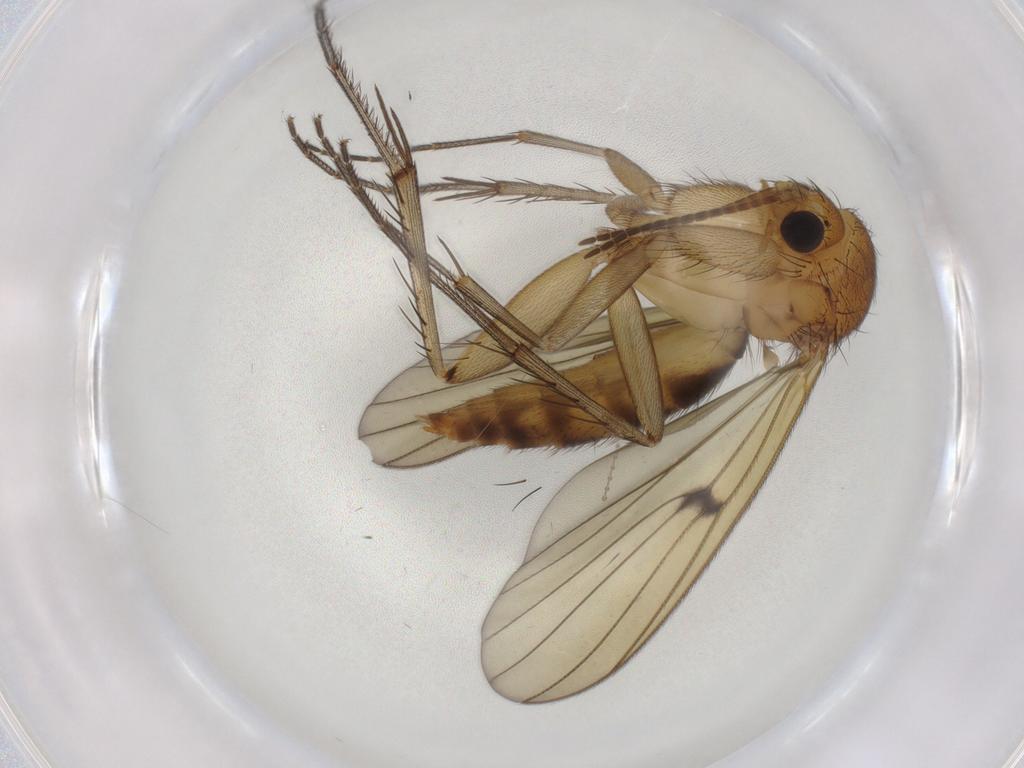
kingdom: Animalia
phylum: Arthropoda
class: Insecta
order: Diptera
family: Mycetophilidae
